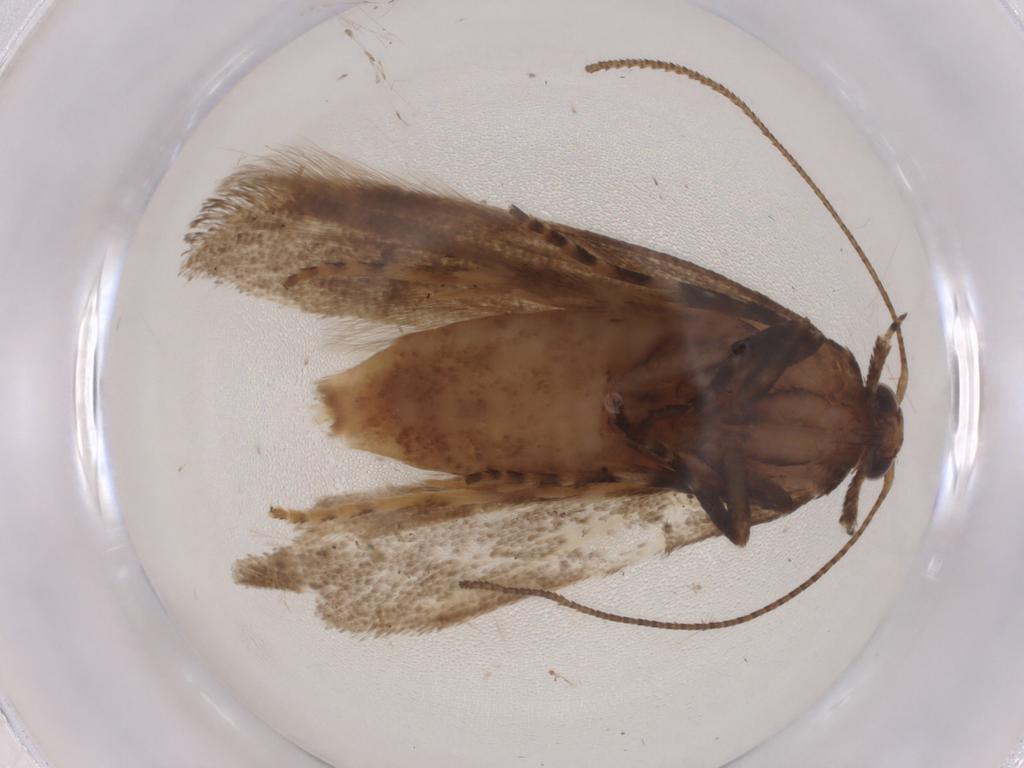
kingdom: Animalia
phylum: Arthropoda
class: Insecta
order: Lepidoptera
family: Gelechiidae
